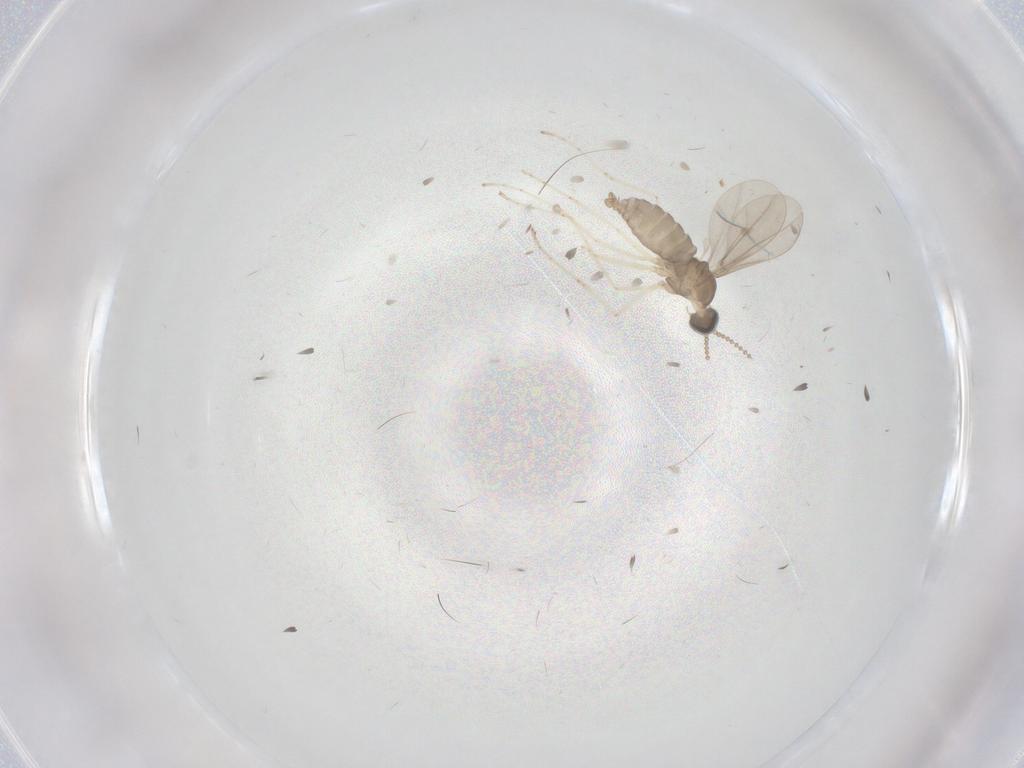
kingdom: Animalia
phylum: Arthropoda
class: Insecta
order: Diptera
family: Cecidomyiidae
